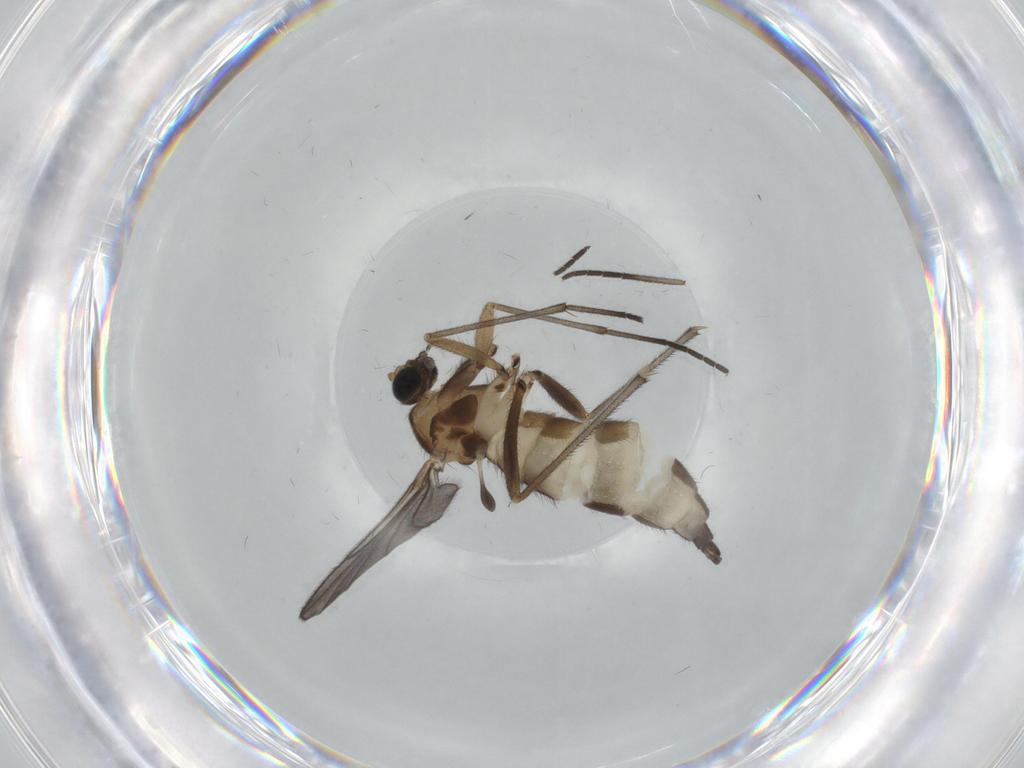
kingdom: Animalia
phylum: Arthropoda
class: Insecta
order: Diptera
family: Sciaridae
